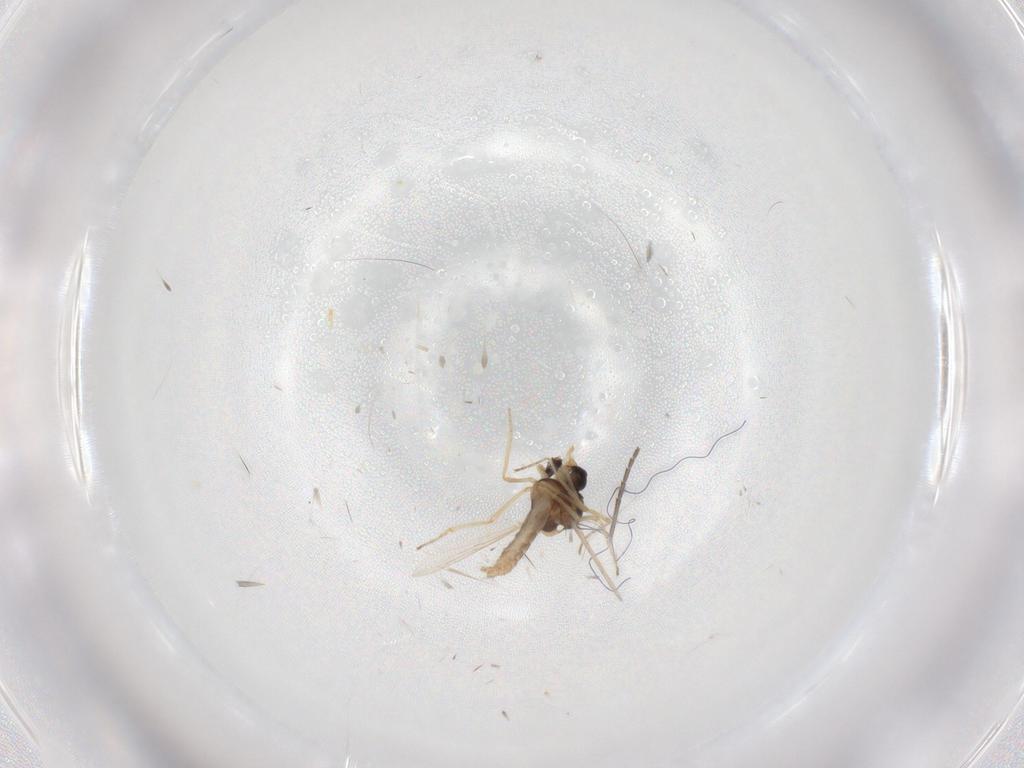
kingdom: Animalia
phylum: Arthropoda
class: Insecta
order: Diptera
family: Ceratopogonidae
